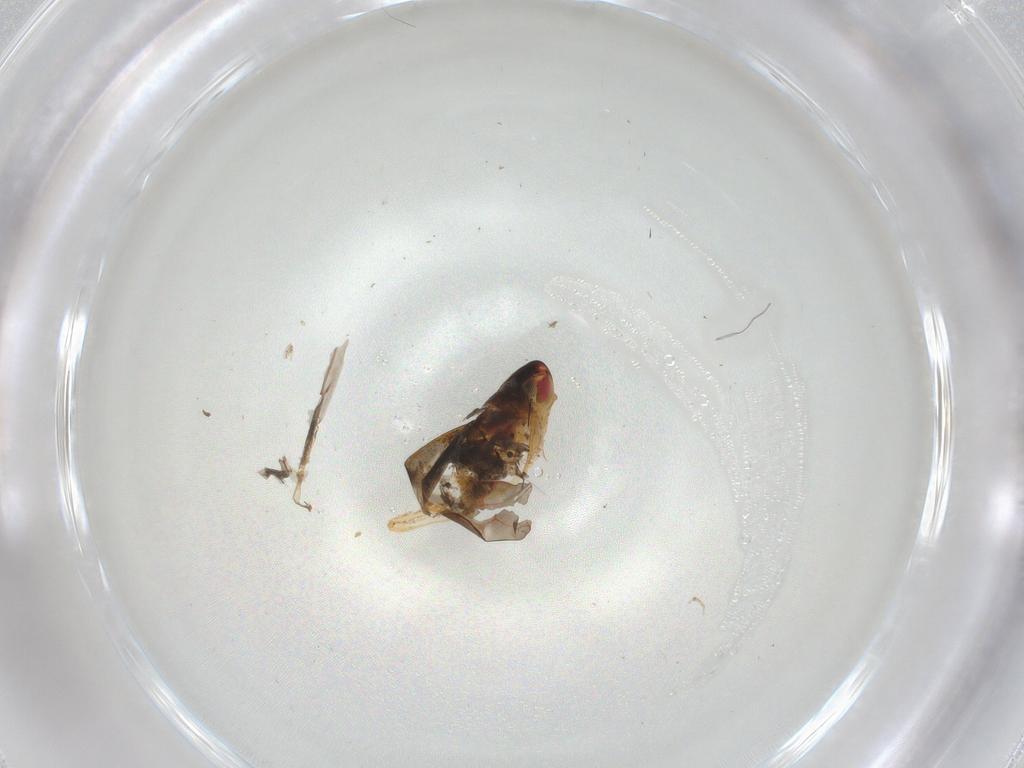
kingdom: Animalia
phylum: Arthropoda
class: Insecta
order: Hemiptera
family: Cicadellidae
